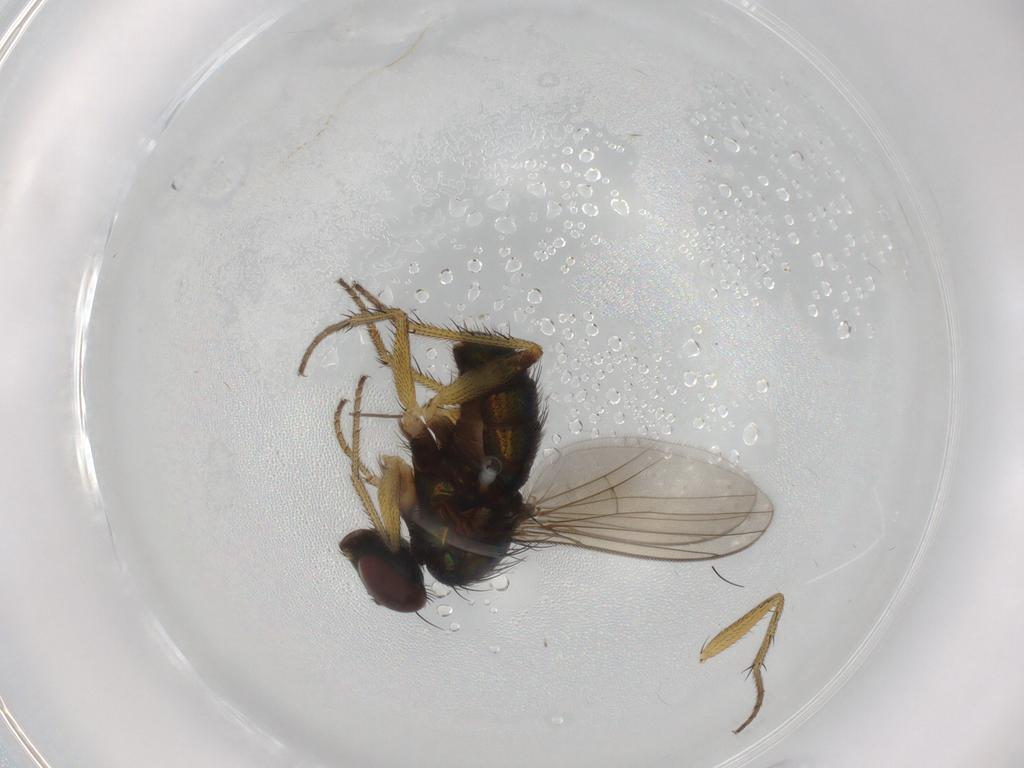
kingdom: Animalia
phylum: Arthropoda
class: Insecta
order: Diptera
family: Dolichopodidae
